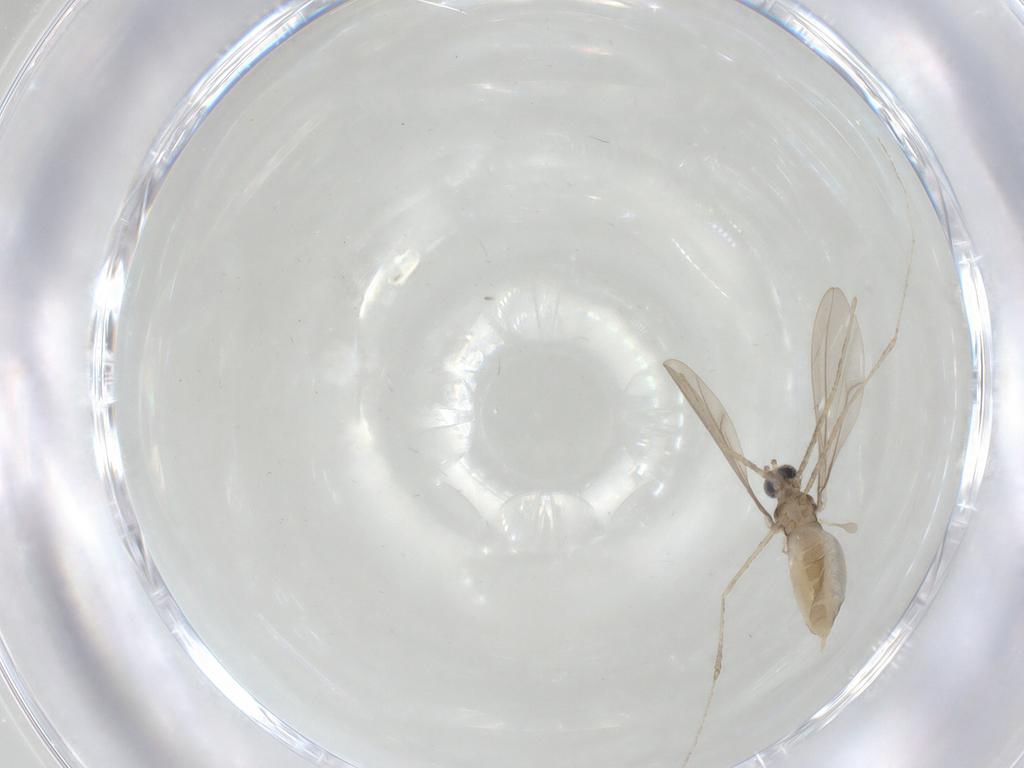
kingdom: Animalia
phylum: Arthropoda
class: Insecta
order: Diptera
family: Cecidomyiidae
